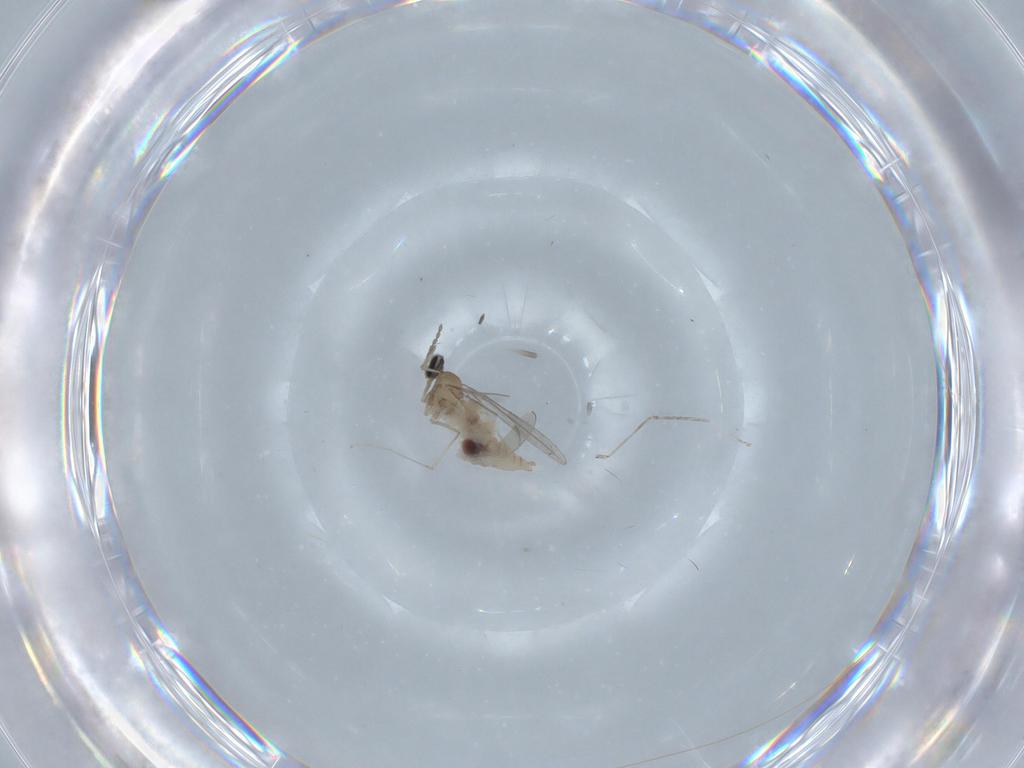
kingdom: Animalia
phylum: Arthropoda
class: Insecta
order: Diptera
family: Cecidomyiidae
